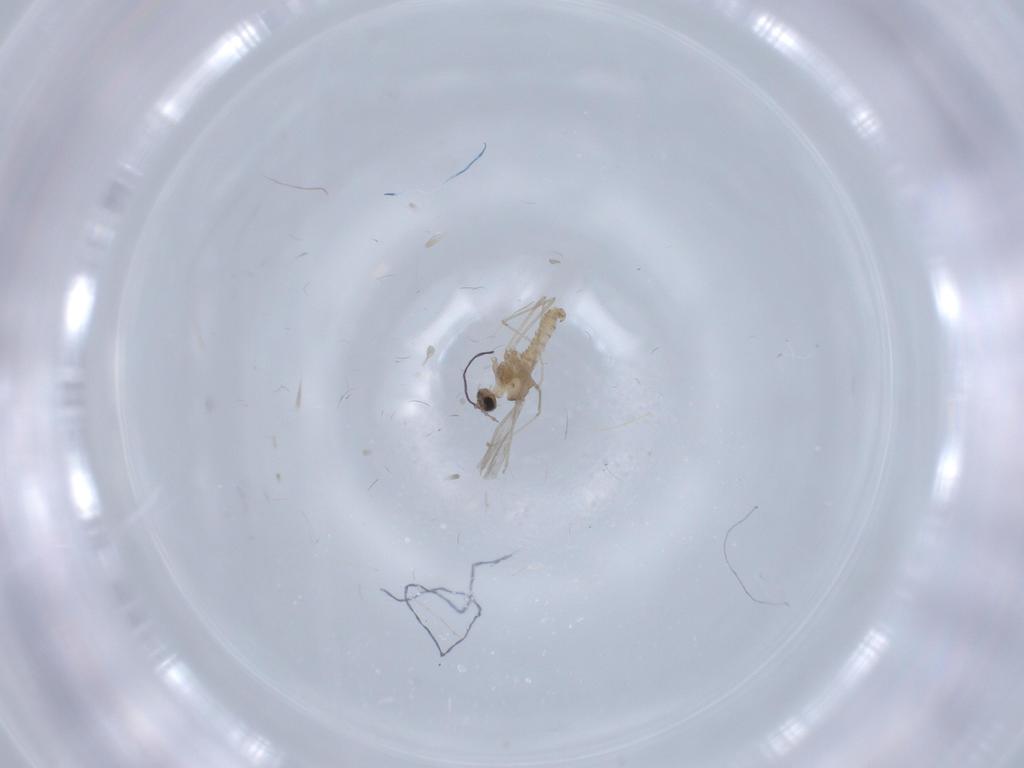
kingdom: Animalia
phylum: Arthropoda
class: Insecta
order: Diptera
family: Cecidomyiidae
